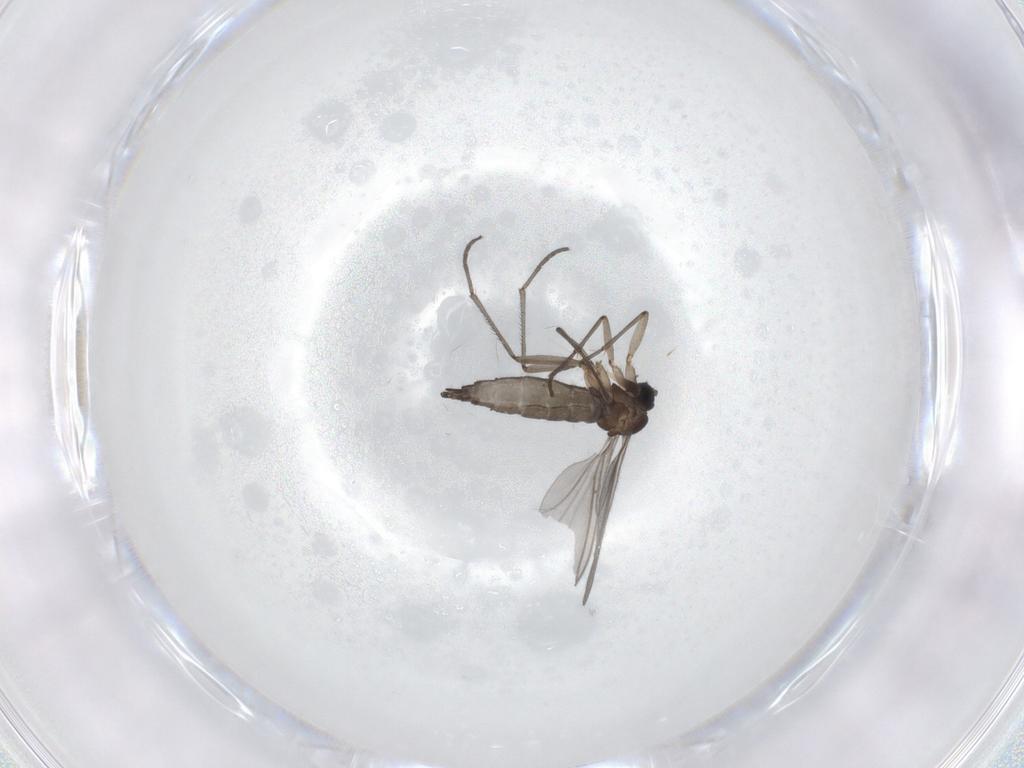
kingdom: Animalia
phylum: Arthropoda
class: Insecta
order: Diptera
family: Sciaridae
